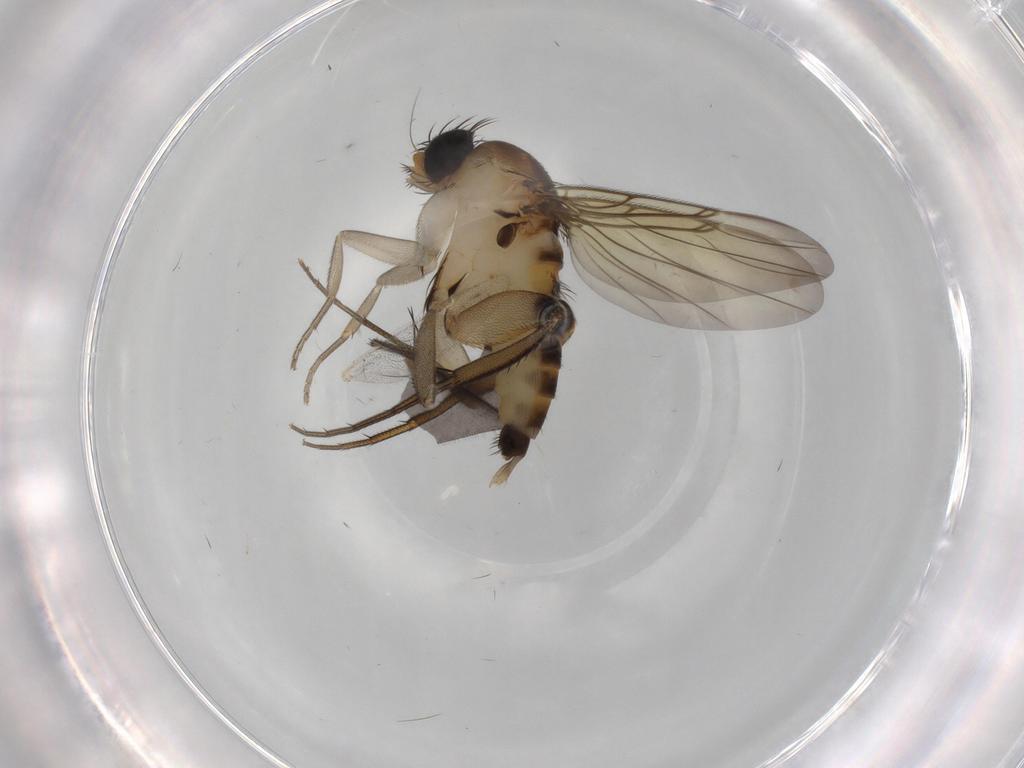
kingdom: Animalia
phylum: Arthropoda
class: Insecta
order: Diptera
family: Phoridae
